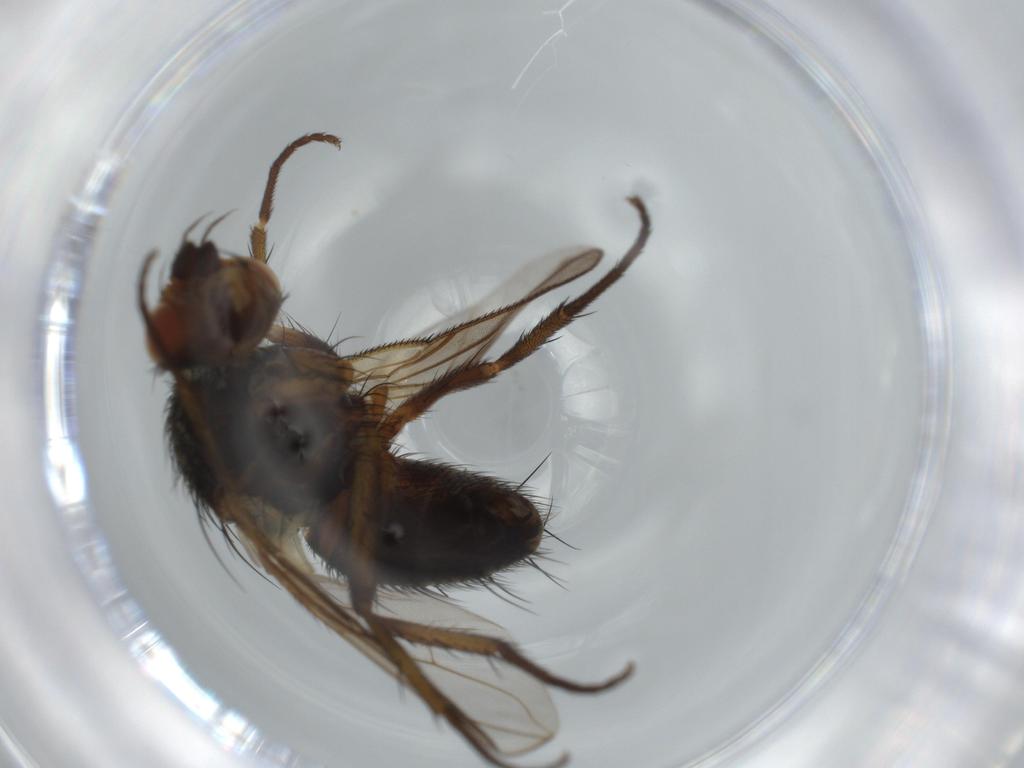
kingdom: Animalia
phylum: Arthropoda
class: Insecta
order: Diptera
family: Tachinidae
